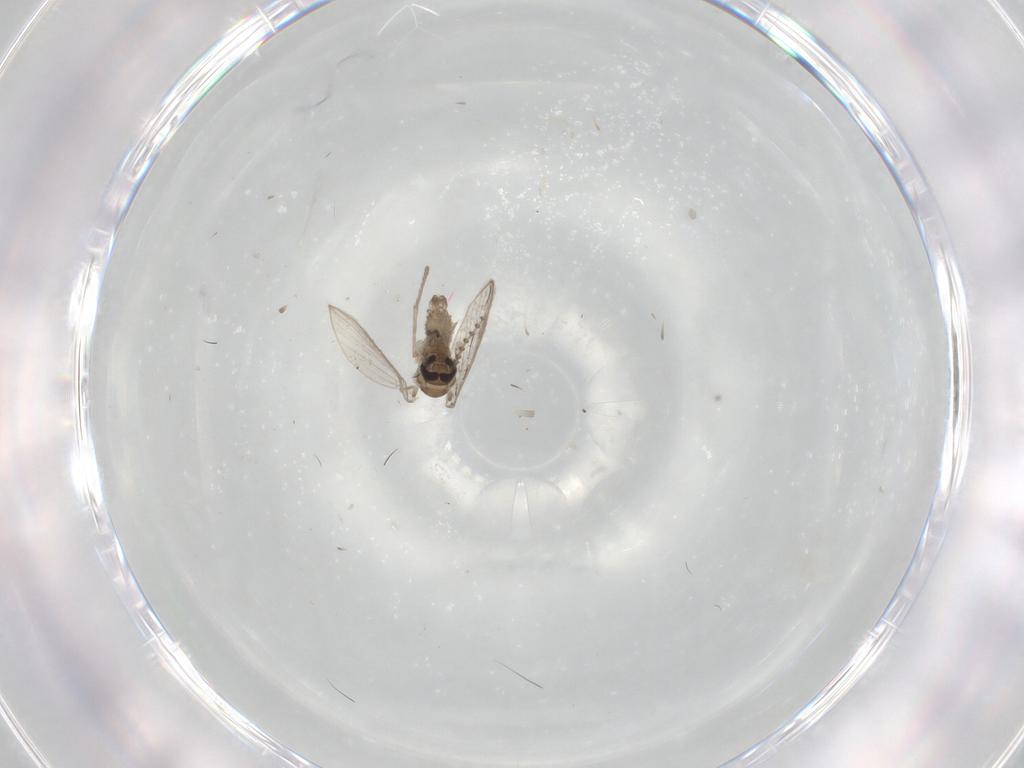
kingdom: Animalia
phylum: Arthropoda
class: Insecta
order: Diptera
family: Psychodidae
